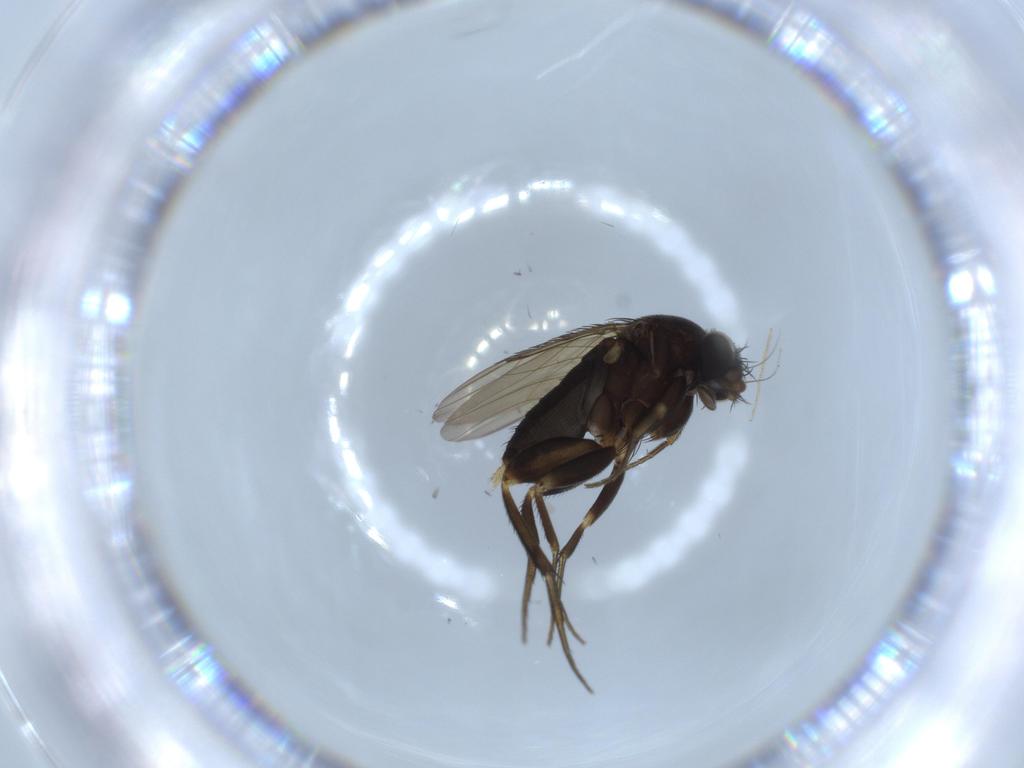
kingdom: Animalia
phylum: Arthropoda
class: Insecta
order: Diptera
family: Chironomidae
